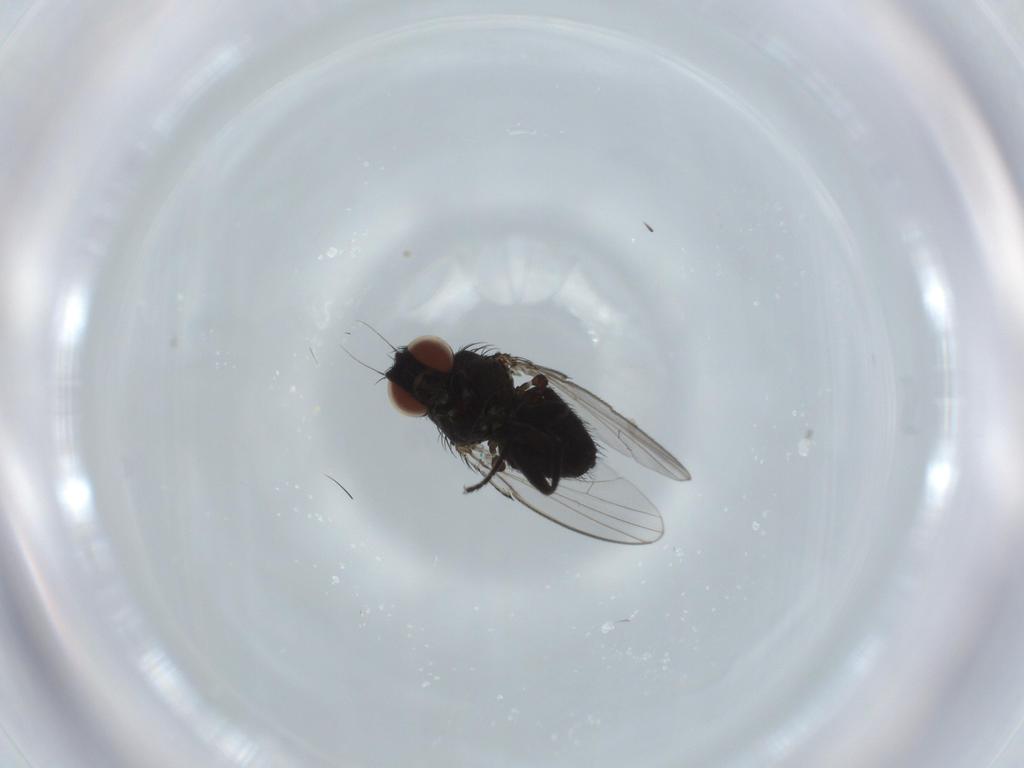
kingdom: Animalia
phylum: Arthropoda
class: Insecta
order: Diptera
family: Milichiidae
